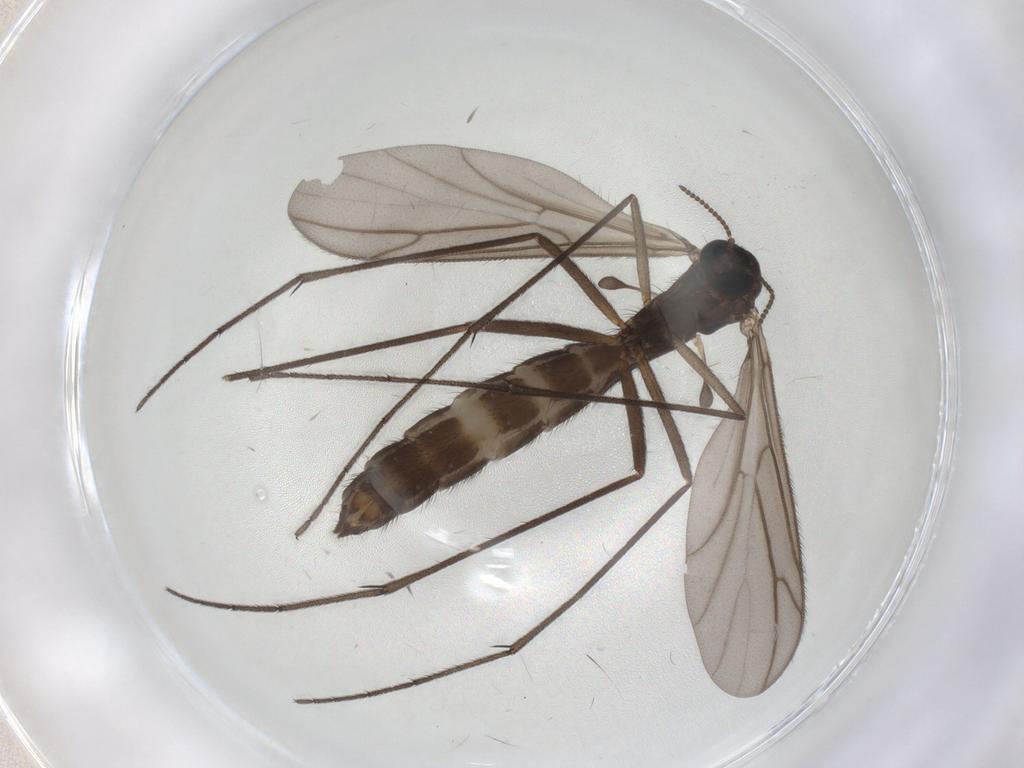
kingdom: Animalia
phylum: Arthropoda
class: Insecta
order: Diptera
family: Keroplatidae
